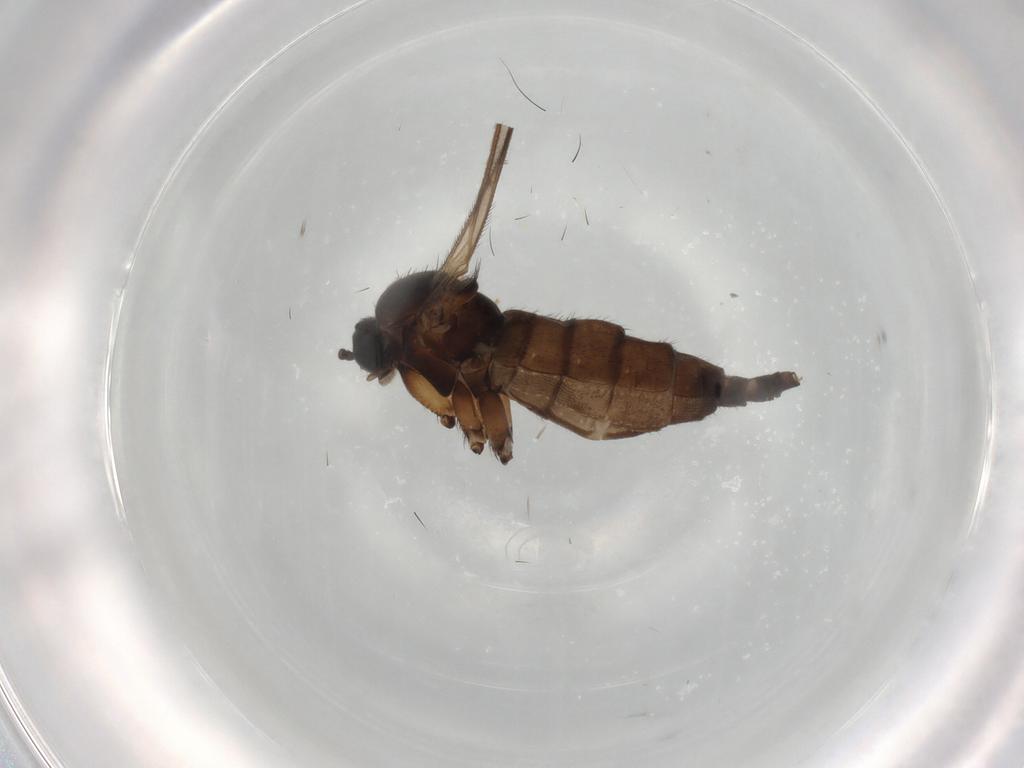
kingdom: Animalia
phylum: Arthropoda
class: Insecta
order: Diptera
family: Sciaridae
